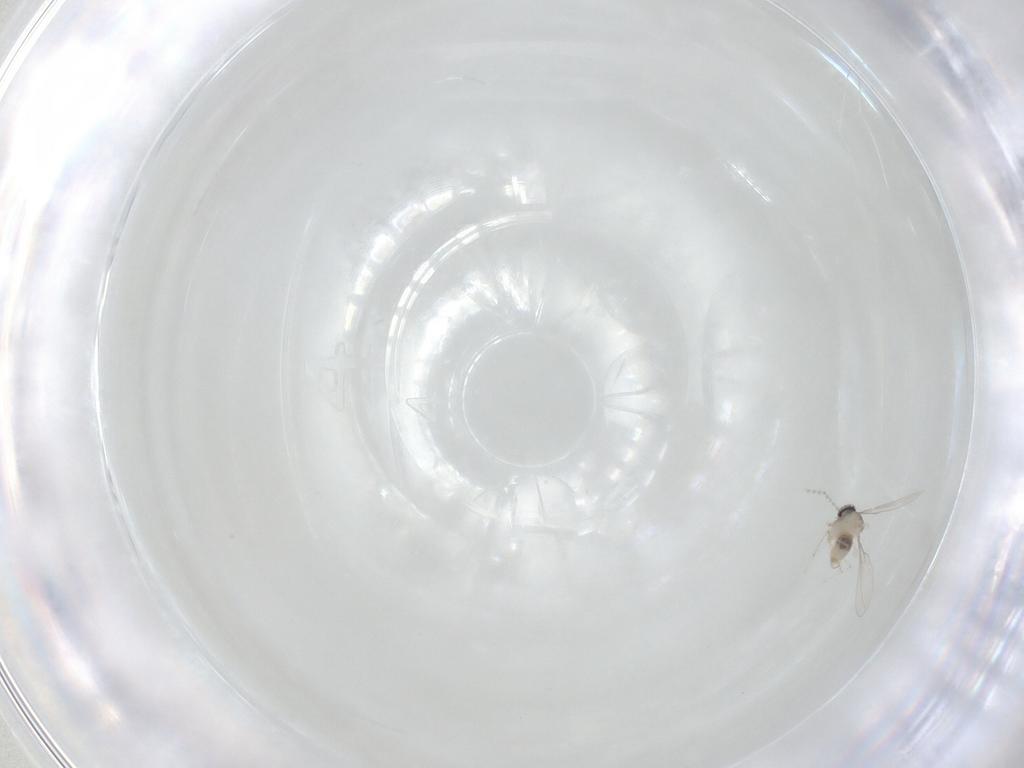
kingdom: Animalia
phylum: Arthropoda
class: Insecta
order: Diptera
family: Cecidomyiidae
